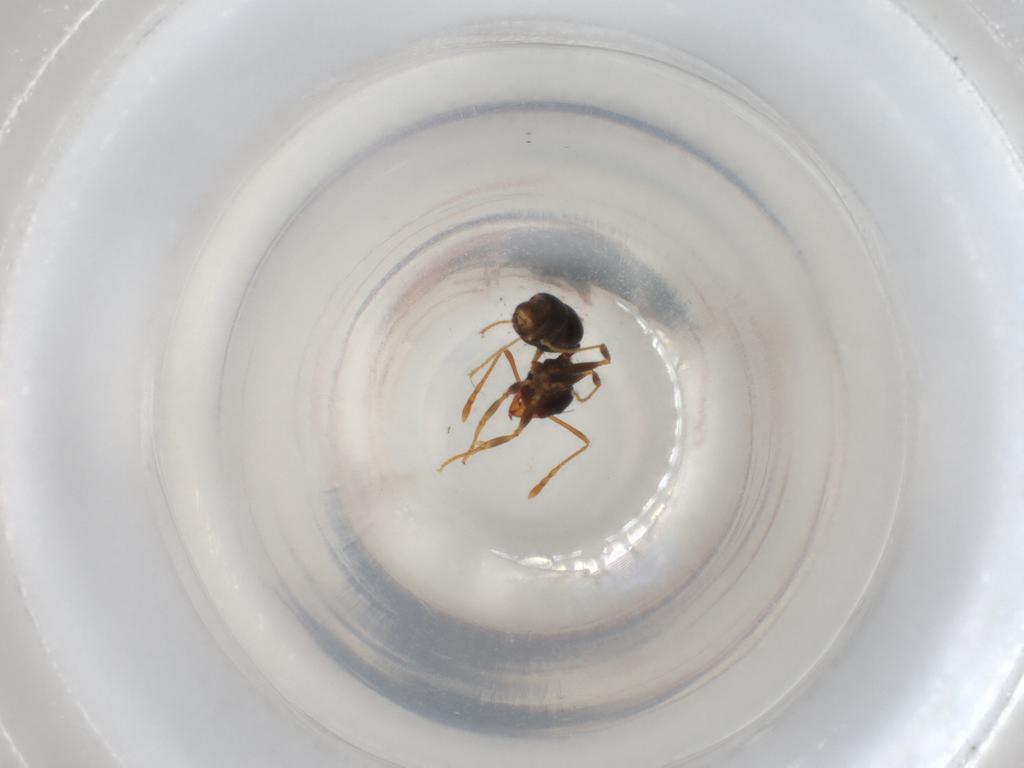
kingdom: Animalia
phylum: Arthropoda
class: Insecta
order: Hymenoptera
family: Formicidae
